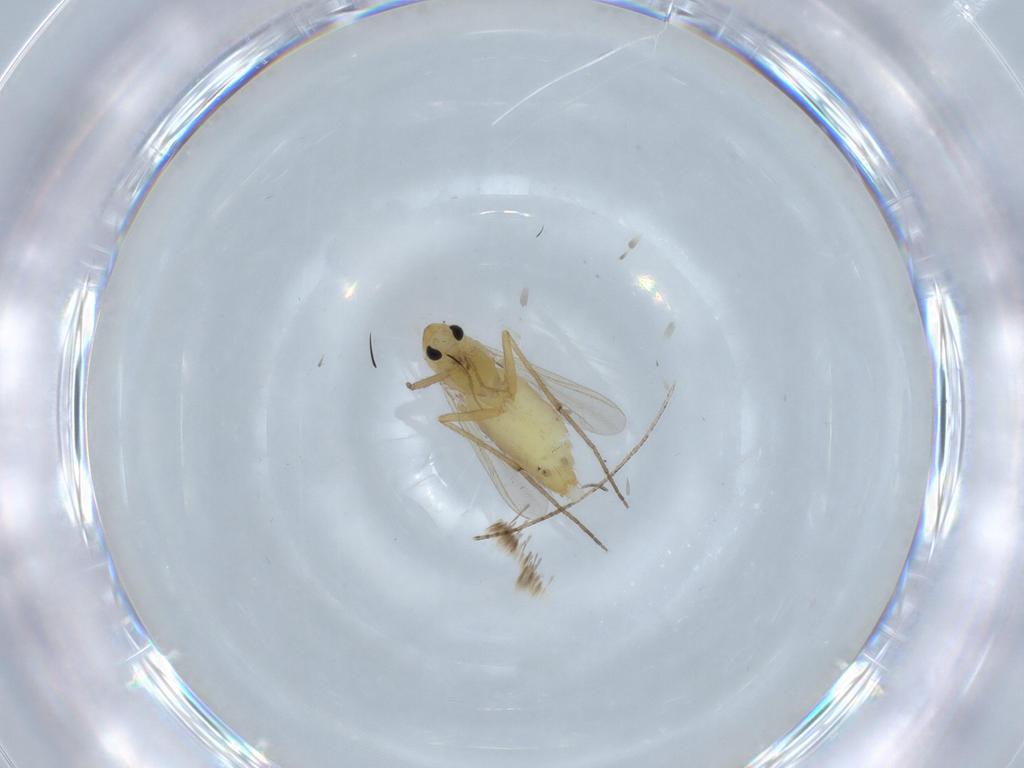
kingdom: Animalia
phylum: Arthropoda
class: Insecta
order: Diptera
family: Chironomidae
